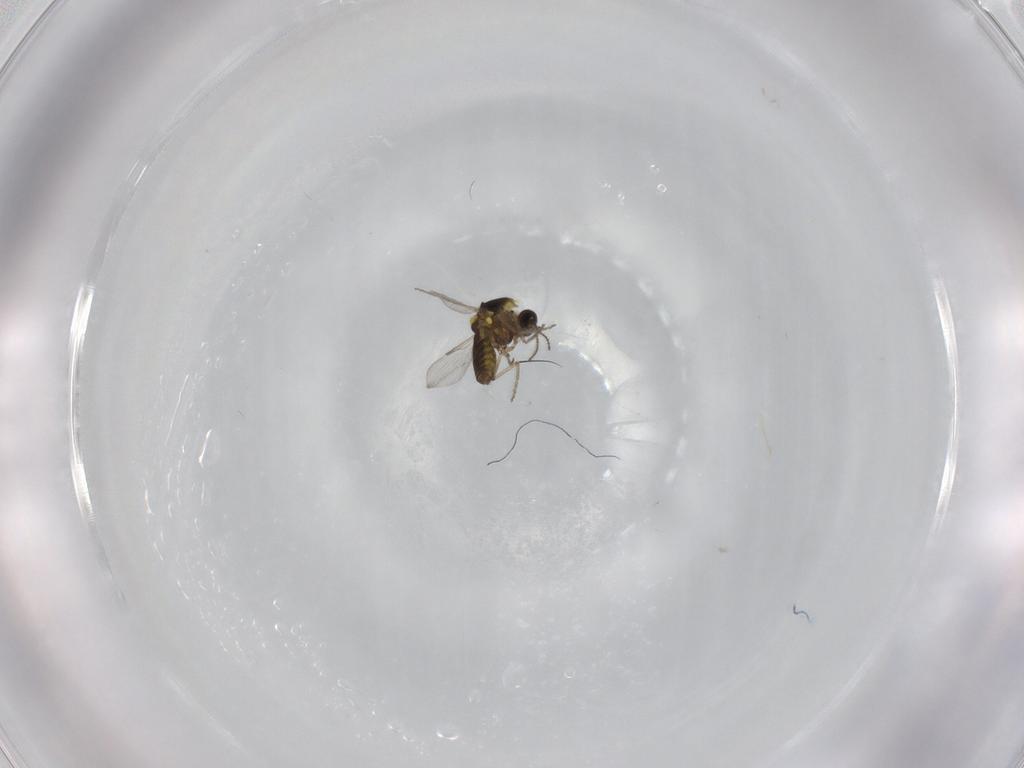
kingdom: Animalia
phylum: Arthropoda
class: Insecta
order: Diptera
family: Ceratopogonidae
